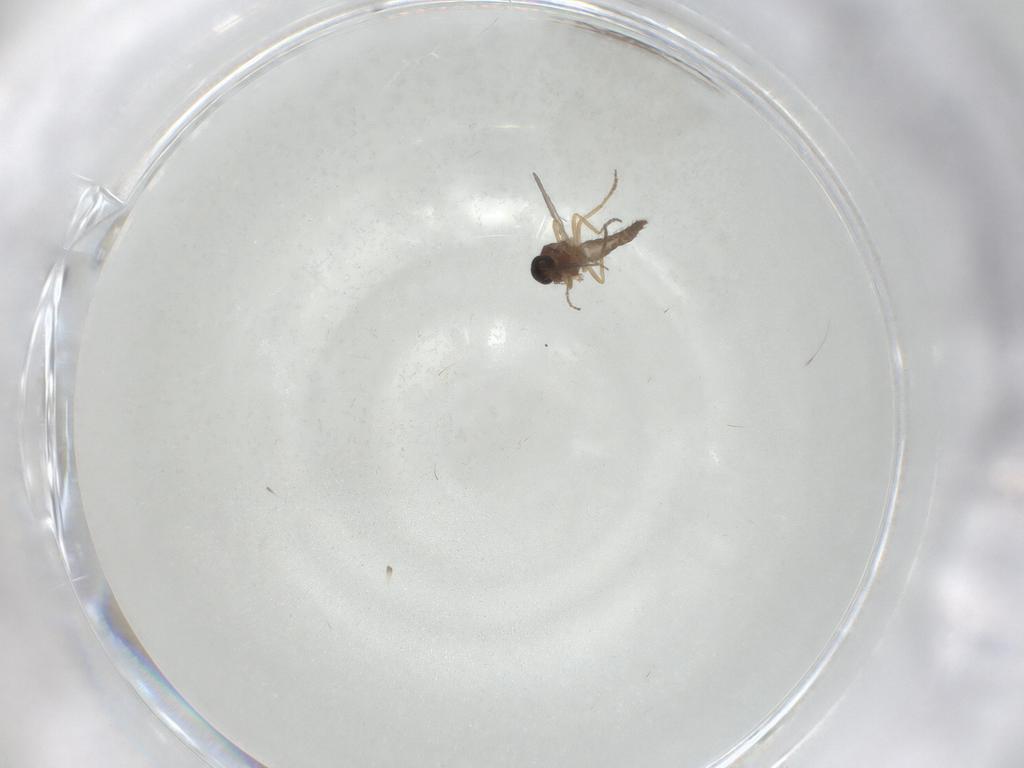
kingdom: Animalia
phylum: Arthropoda
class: Insecta
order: Diptera
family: Ceratopogonidae
